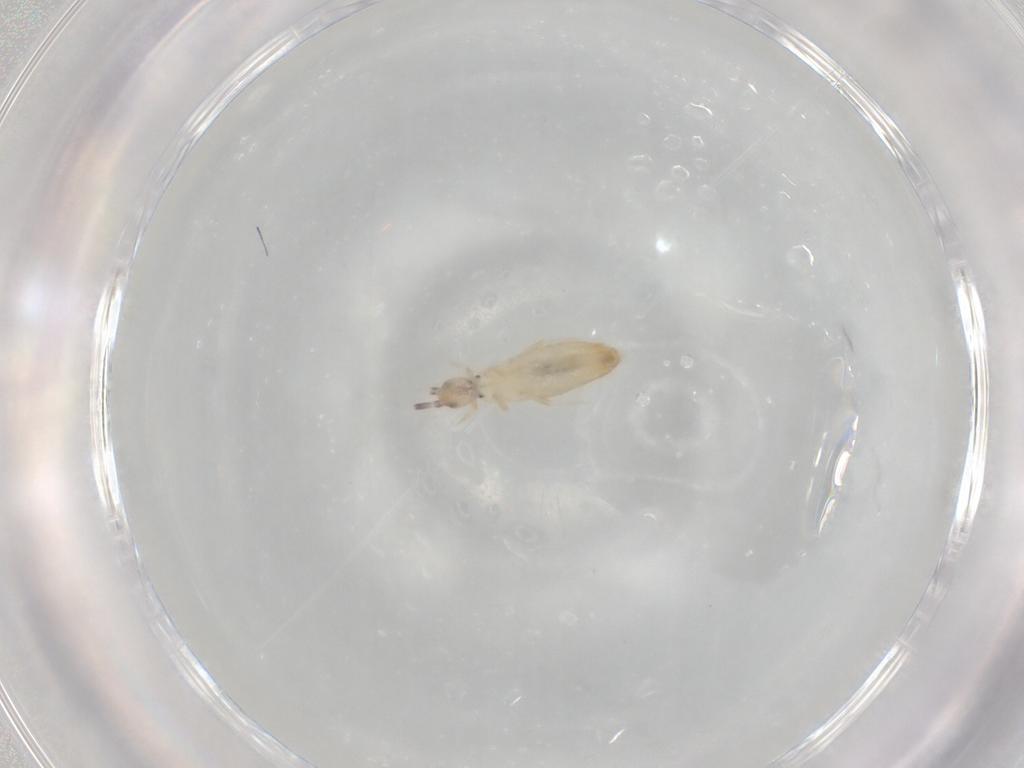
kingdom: Animalia
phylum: Arthropoda
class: Collembola
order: Entomobryomorpha
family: Entomobryidae
